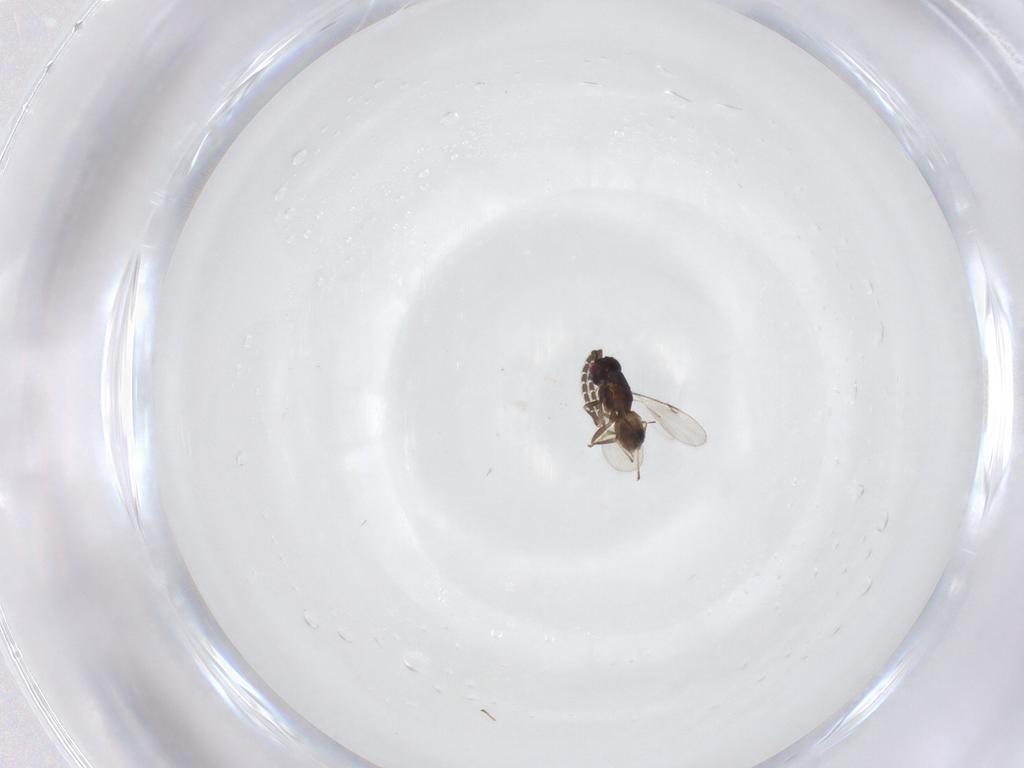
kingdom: Animalia
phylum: Arthropoda
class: Insecta
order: Hymenoptera
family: Encyrtidae
